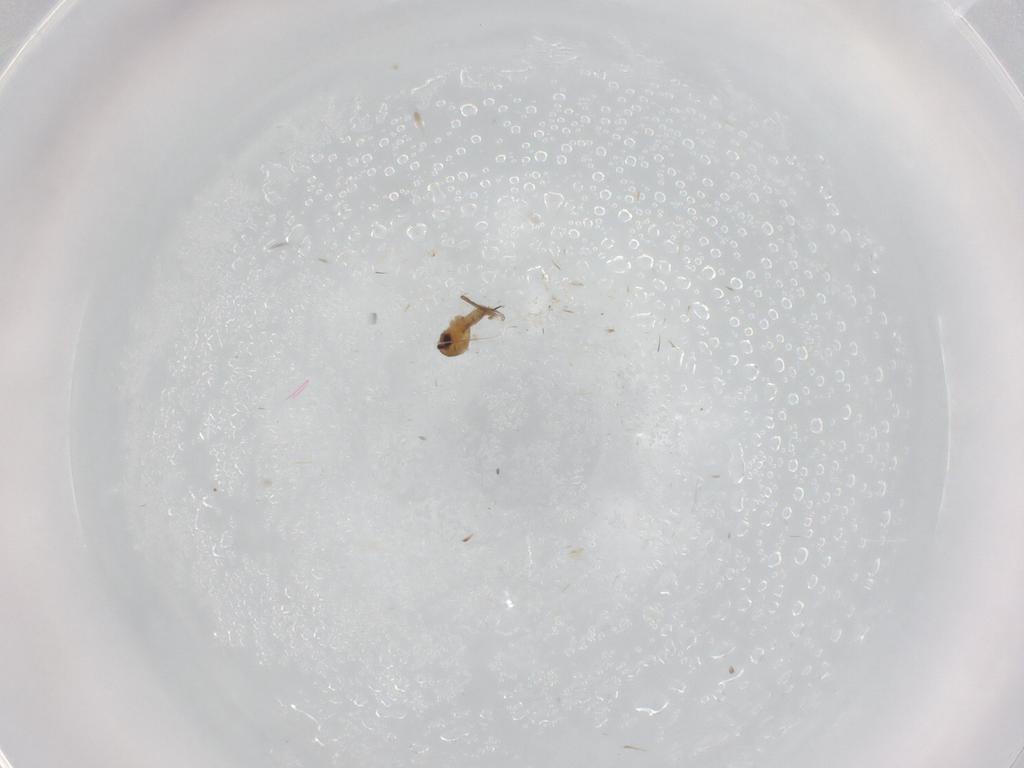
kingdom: Animalia
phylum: Arthropoda
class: Insecta
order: Diptera
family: Cecidomyiidae
